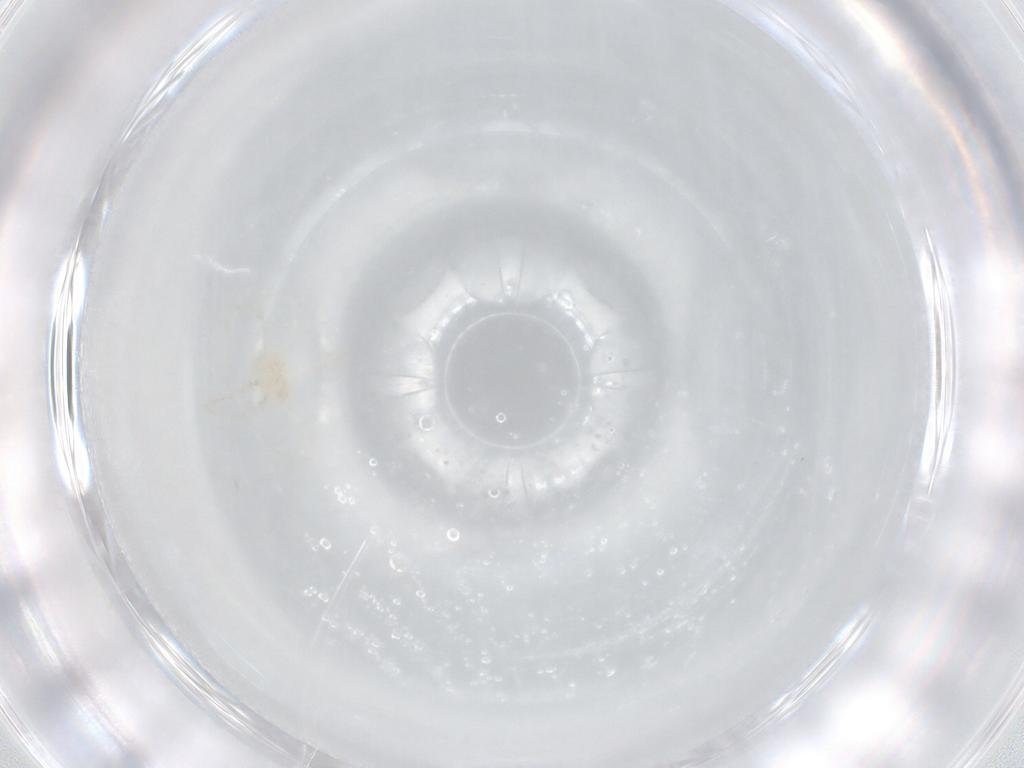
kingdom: Animalia
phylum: Arthropoda
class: Arachnida
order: Trombidiformes
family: Erythraeidae
